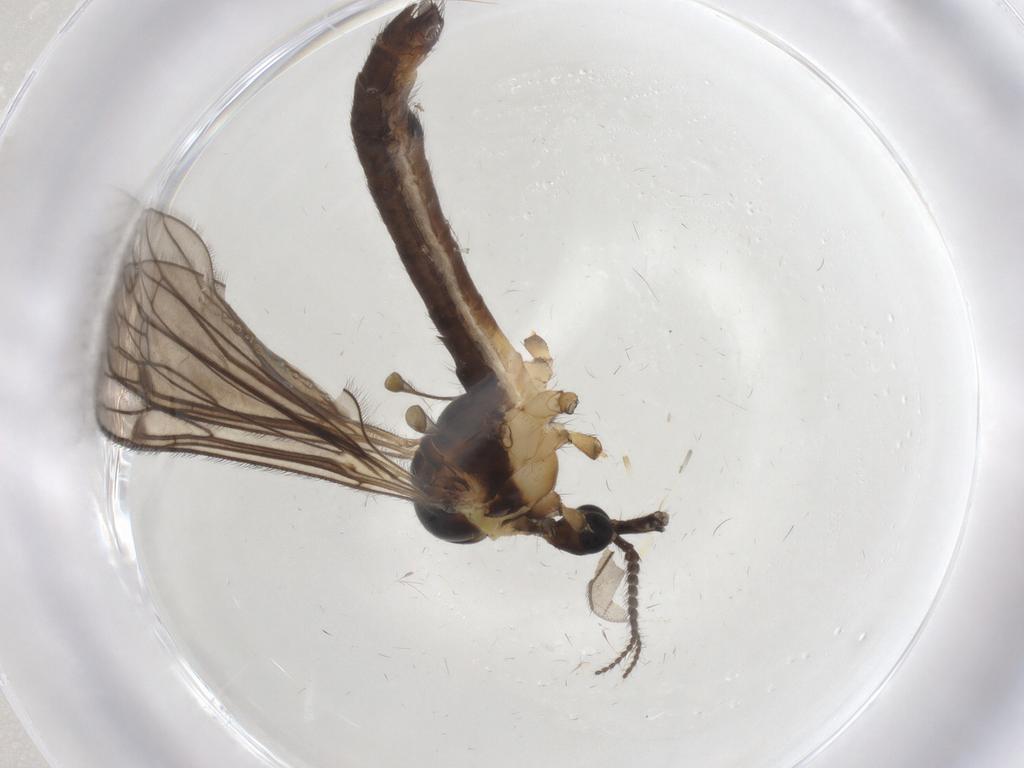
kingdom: Animalia
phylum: Arthropoda
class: Insecta
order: Diptera
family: Limoniidae
